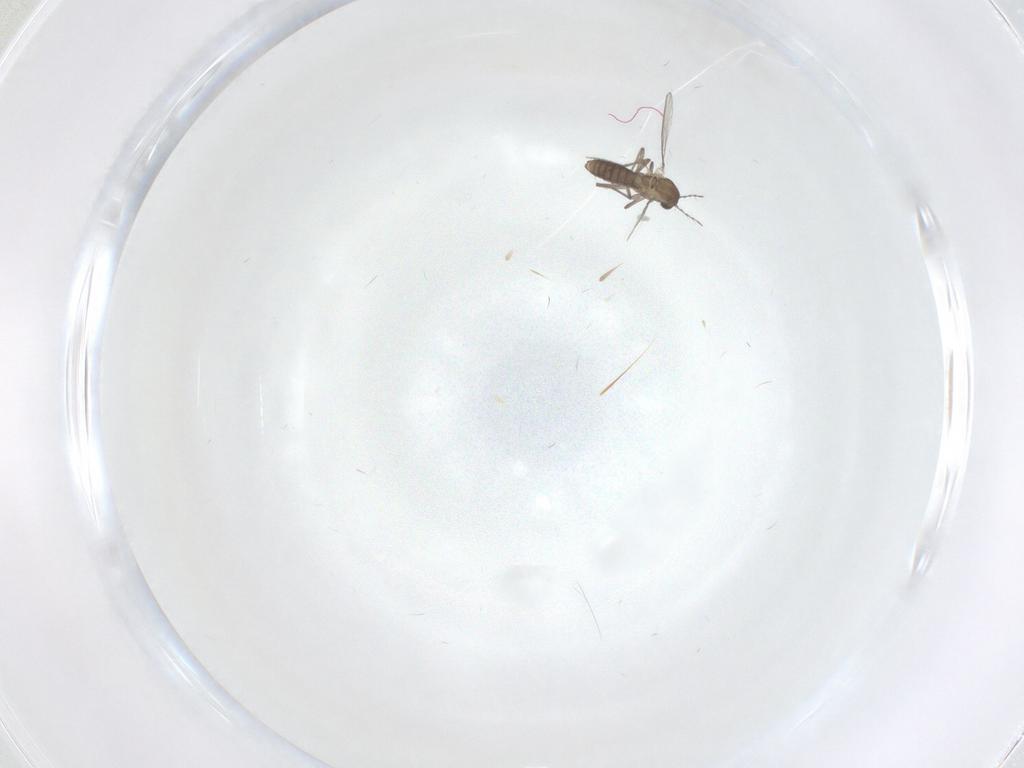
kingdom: Animalia
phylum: Arthropoda
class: Insecta
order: Diptera
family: Chironomidae
